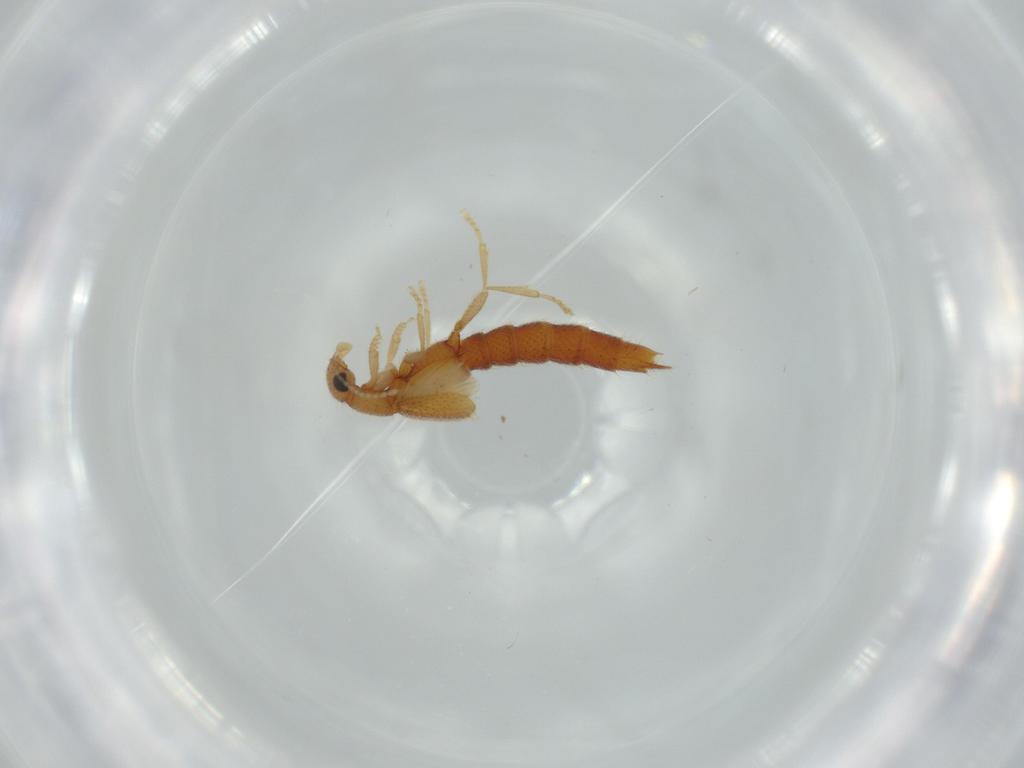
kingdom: Animalia
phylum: Arthropoda
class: Insecta
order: Coleoptera
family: Staphylinidae
